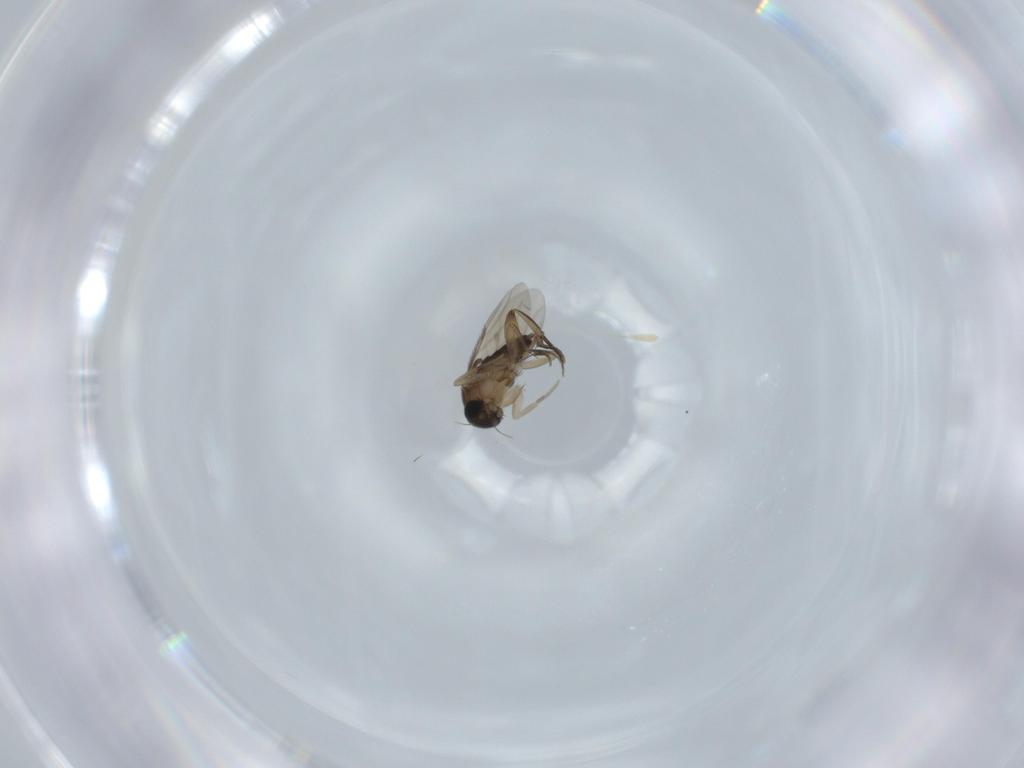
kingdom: Animalia
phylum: Arthropoda
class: Insecta
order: Diptera
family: Phoridae
